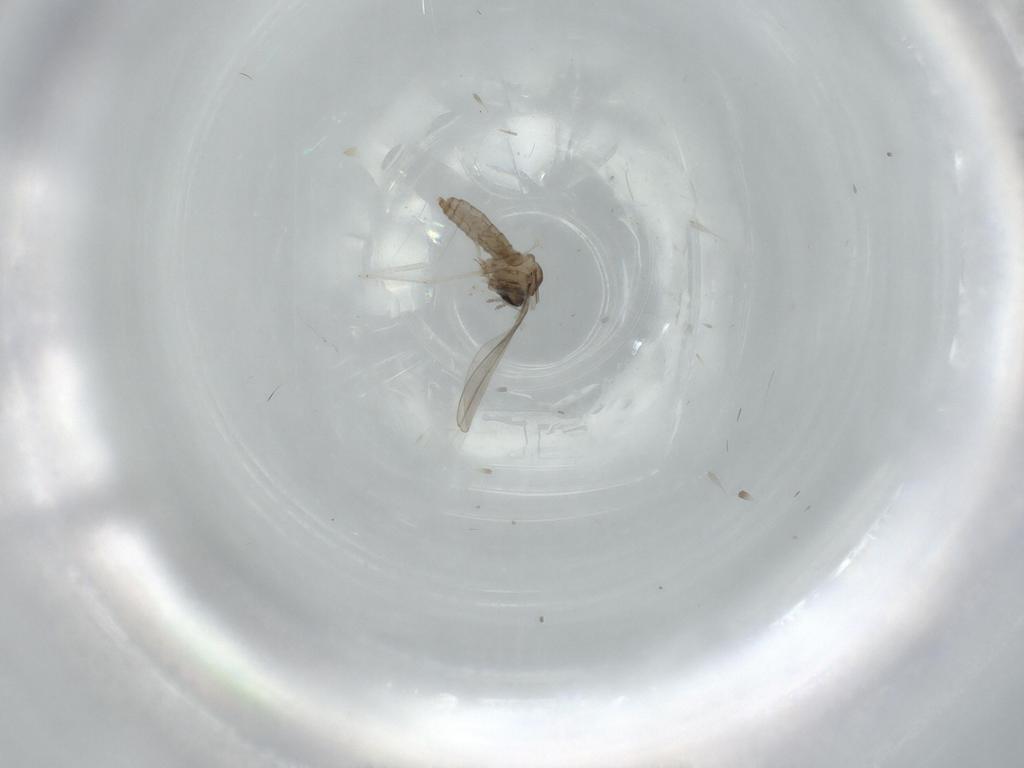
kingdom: Animalia
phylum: Arthropoda
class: Insecta
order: Diptera
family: Cecidomyiidae
